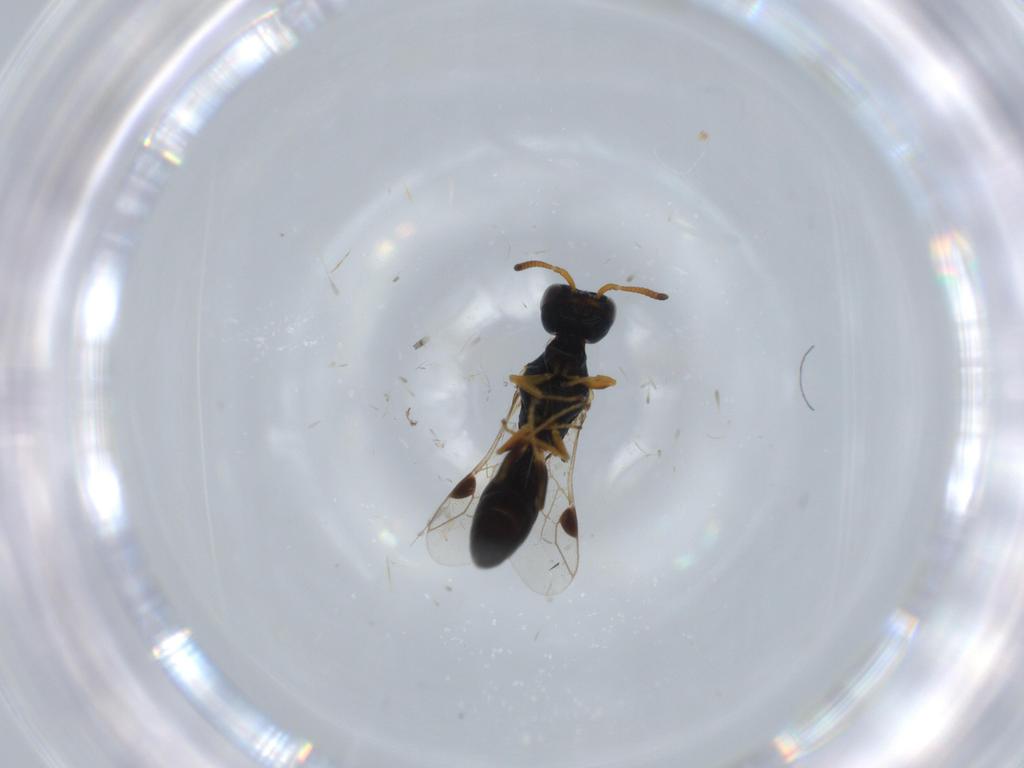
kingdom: Animalia
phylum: Arthropoda
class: Insecta
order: Hymenoptera
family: Pemphredonidae
